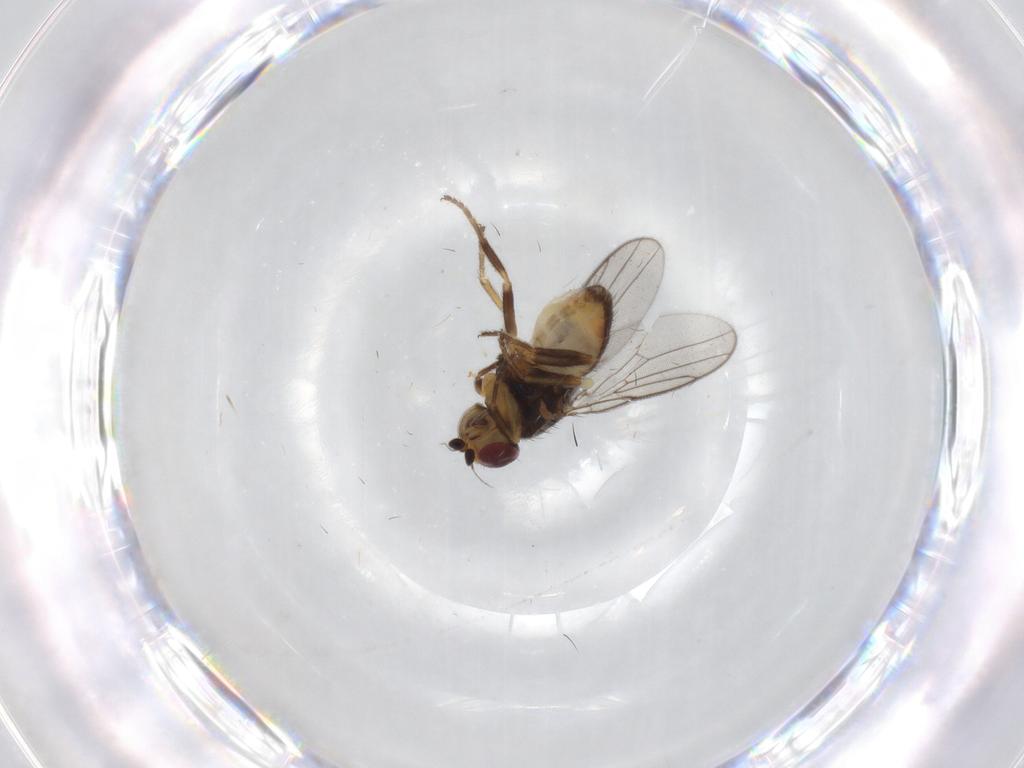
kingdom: Animalia
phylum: Arthropoda
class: Insecta
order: Diptera
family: Chloropidae
